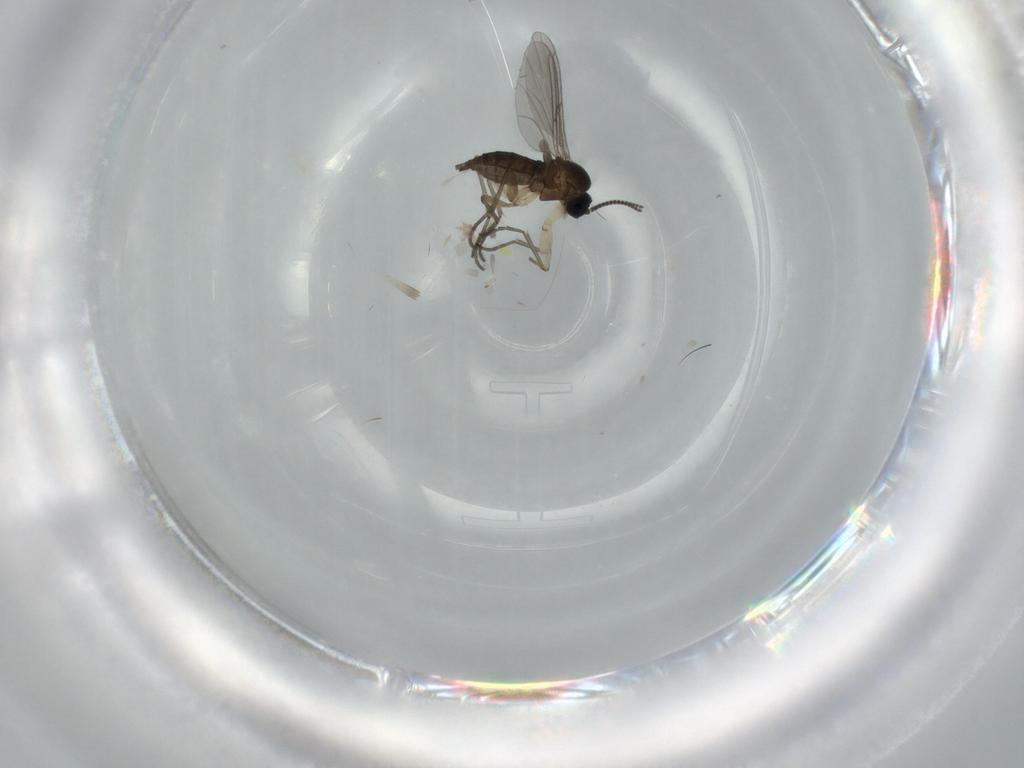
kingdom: Animalia
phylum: Arthropoda
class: Insecta
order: Diptera
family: Sciaridae
